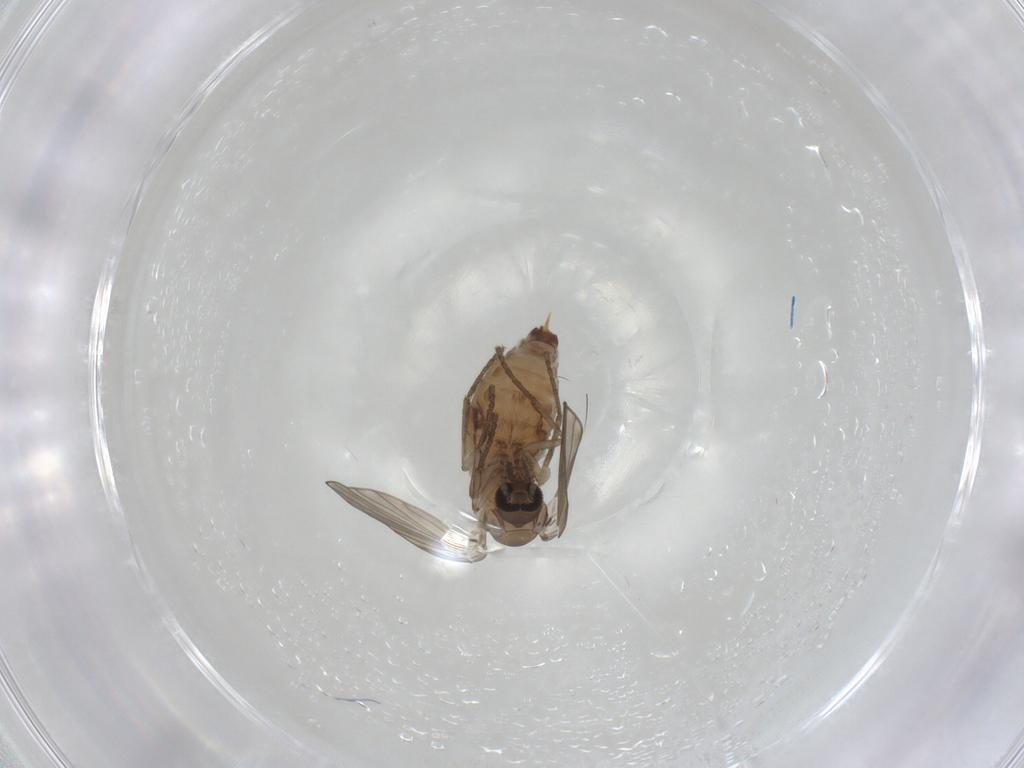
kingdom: Animalia
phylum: Arthropoda
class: Insecta
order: Diptera
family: Psychodidae
